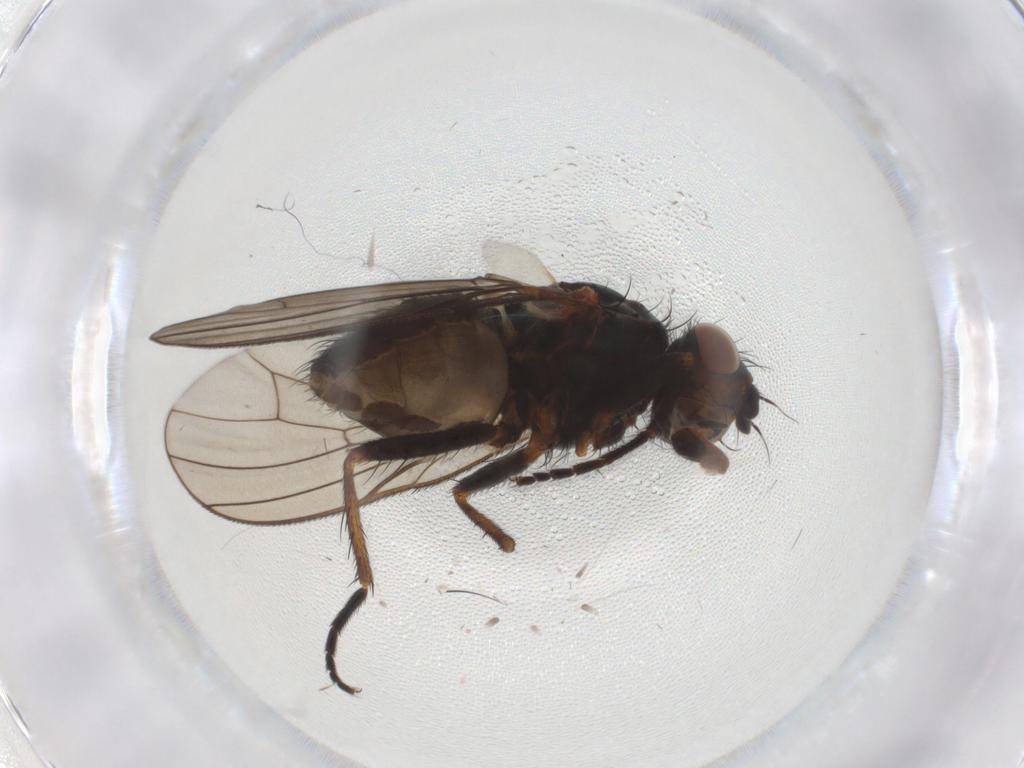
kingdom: Animalia
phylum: Arthropoda
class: Insecta
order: Diptera
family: Anthomyiidae
